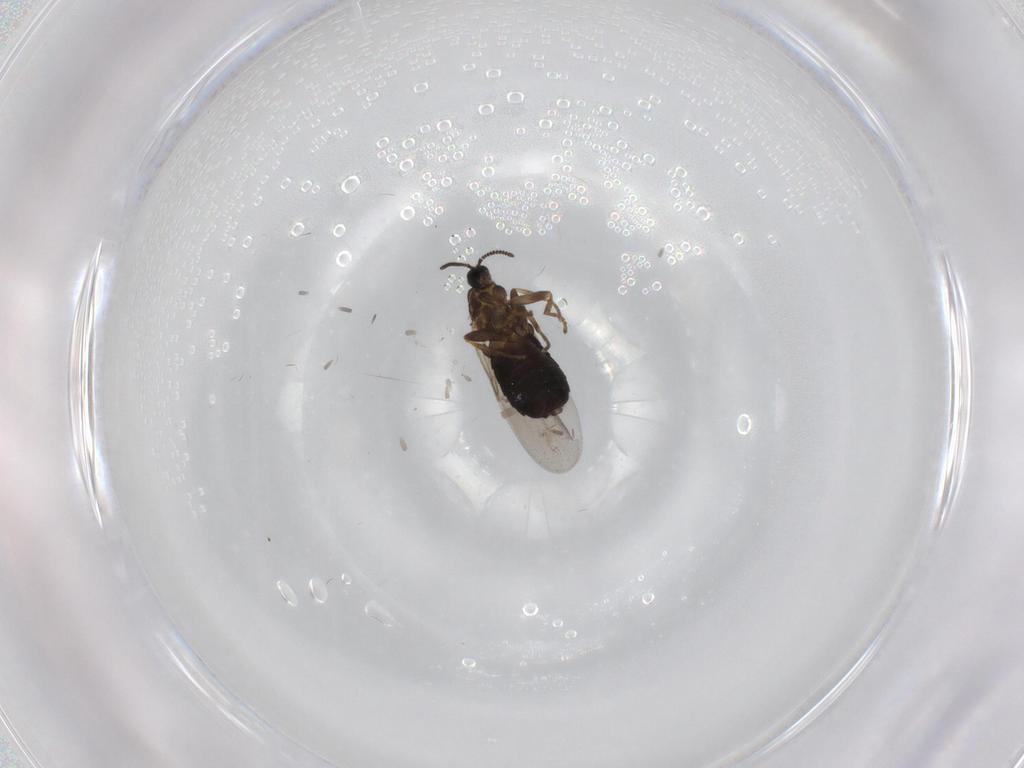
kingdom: Animalia
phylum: Arthropoda
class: Insecta
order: Diptera
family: Scatopsidae
